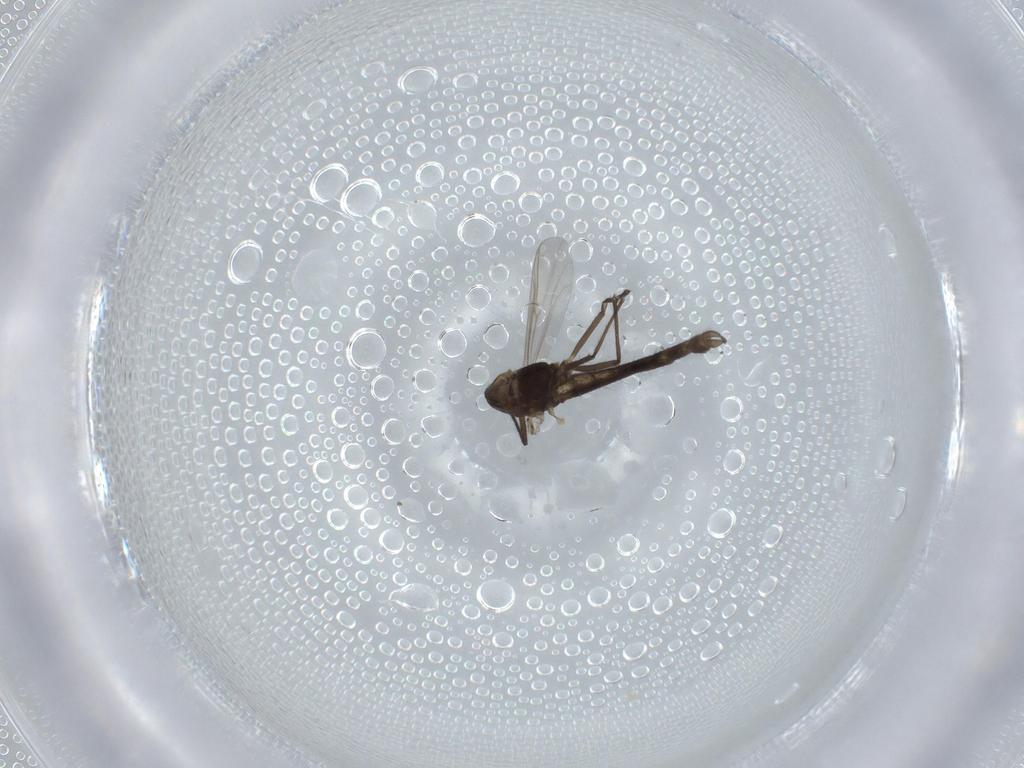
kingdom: Animalia
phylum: Arthropoda
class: Insecta
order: Diptera
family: Chironomidae
